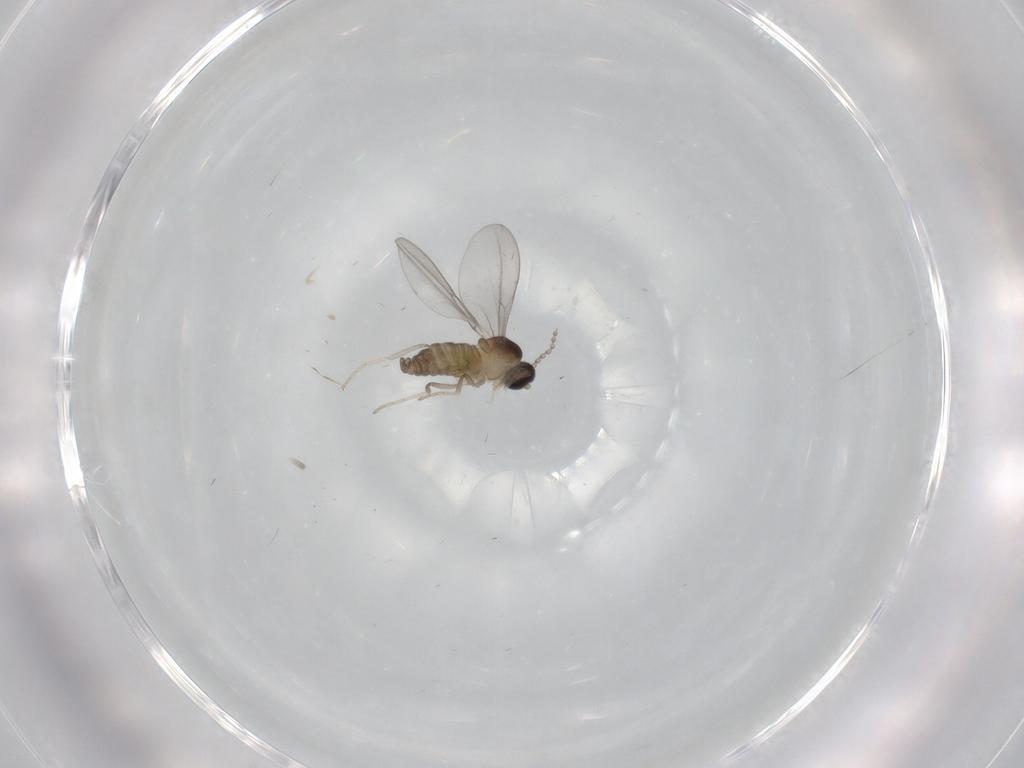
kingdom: Animalia
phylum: Arthropoda
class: Insecta
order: Diptera
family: Cecidomyiidae
